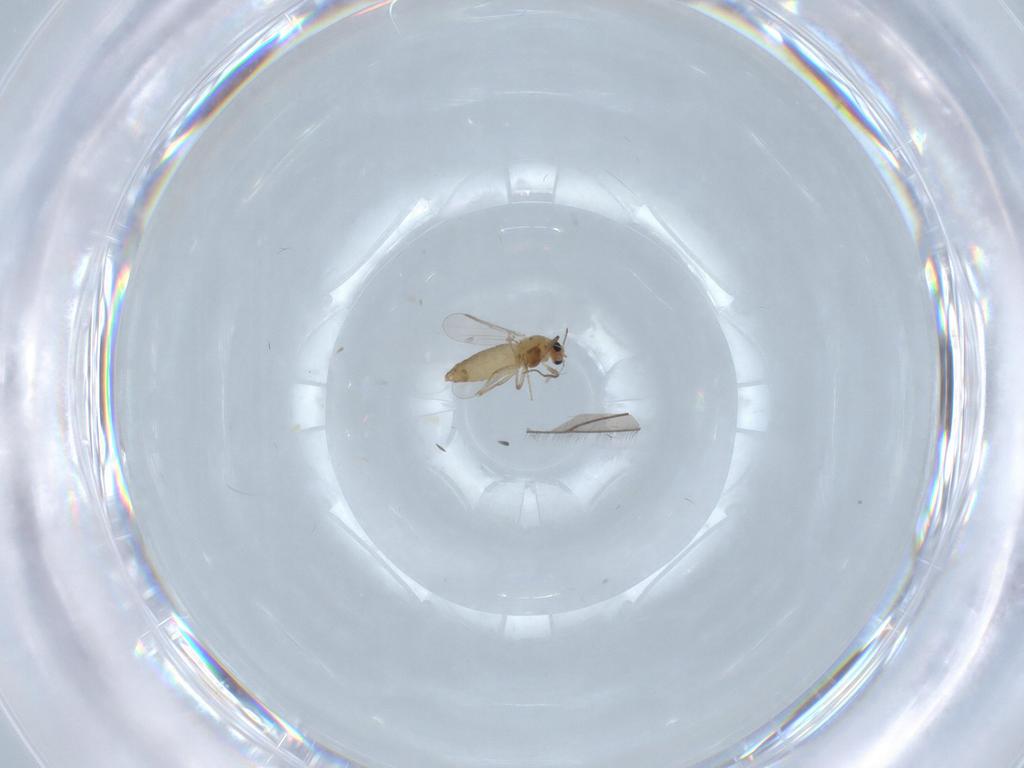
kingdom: Animalia
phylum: Arthropoda
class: Insecta
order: Diptera
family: Chironomidae
